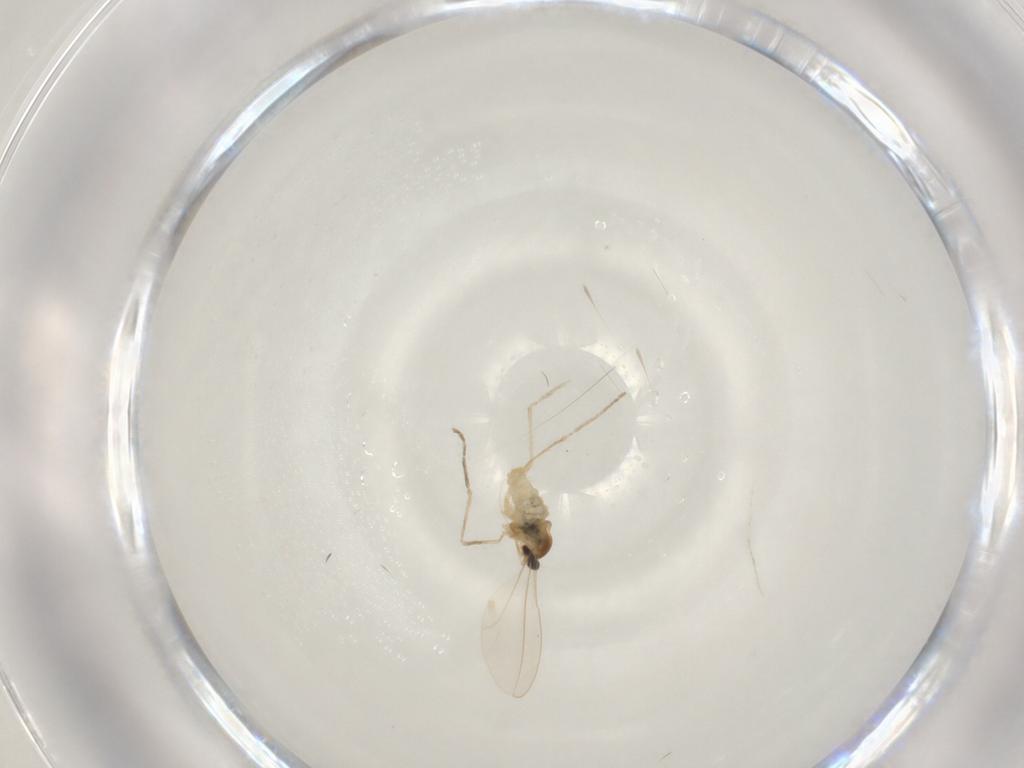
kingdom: Animalia
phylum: Arthropoda
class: Insecta
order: Diptera
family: Cecidomyiidae
